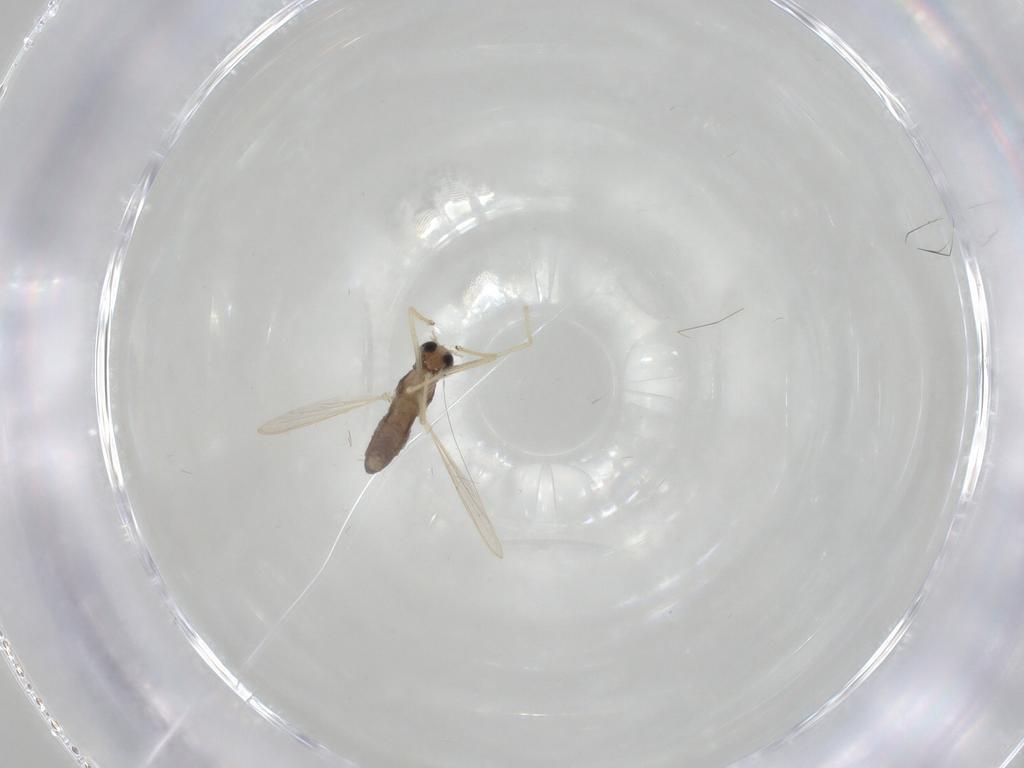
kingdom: Animalia
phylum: Arthropoda
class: Insecta
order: Diptera
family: Chironomidae
